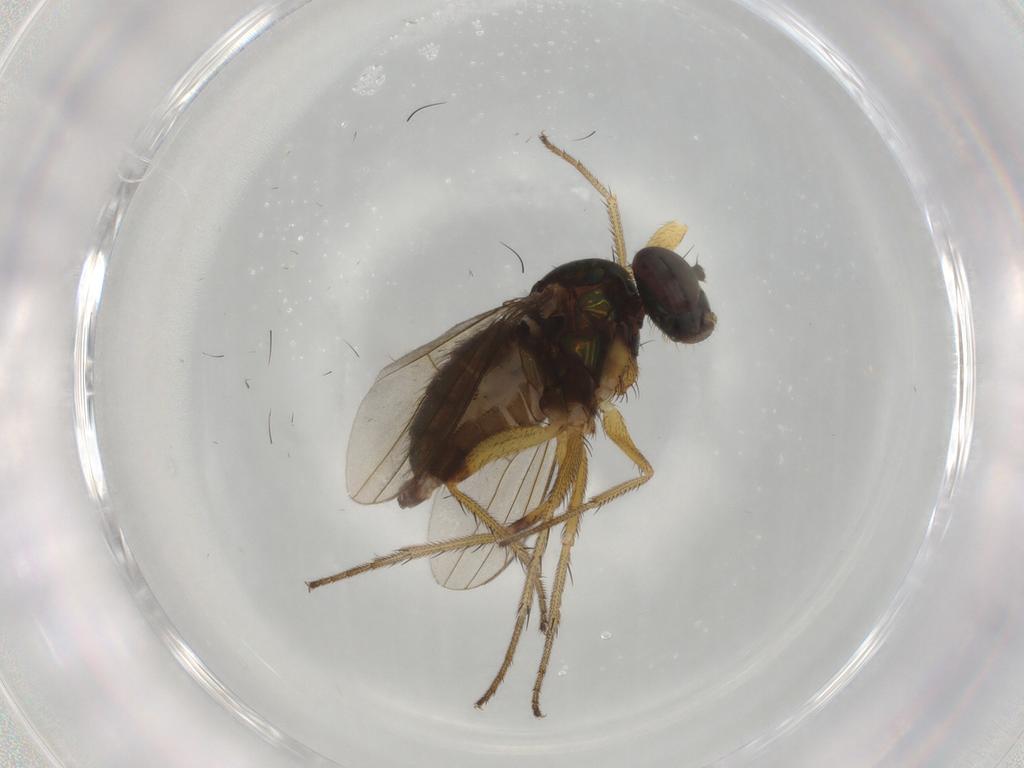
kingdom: Animalia
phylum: Arthropoda
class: Insecta
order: Diptera
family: Dolichopodidae
